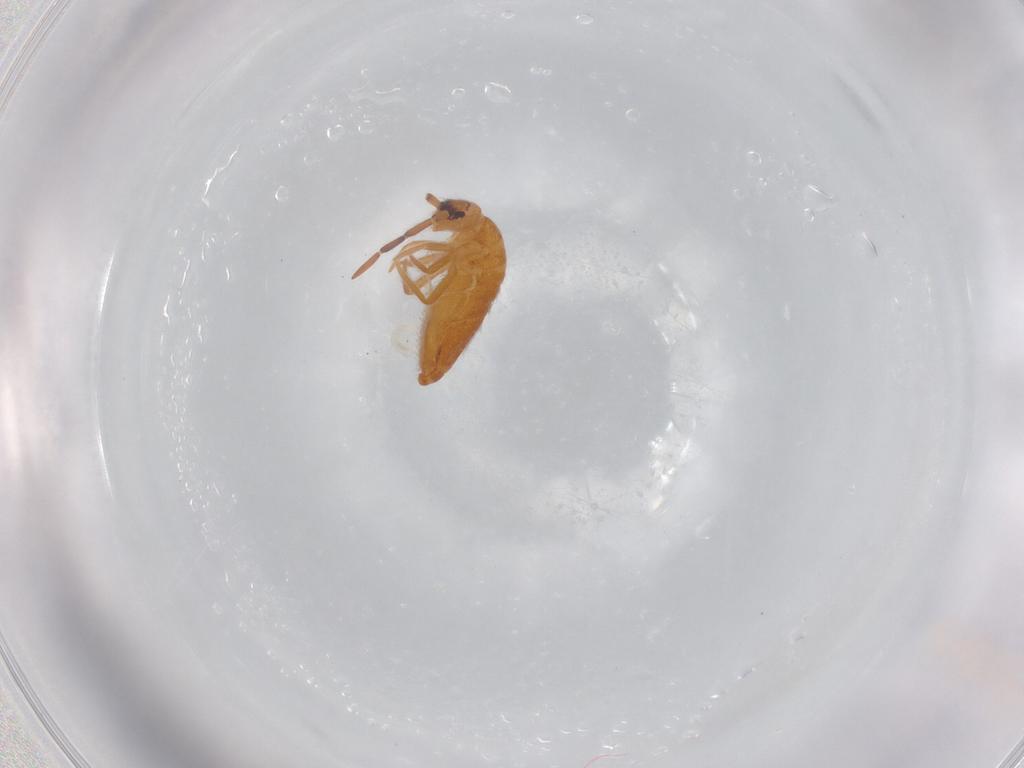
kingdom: Animalia
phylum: Arthropoda
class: Collembola
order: Entomobryomorpha
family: Entomobryidae
